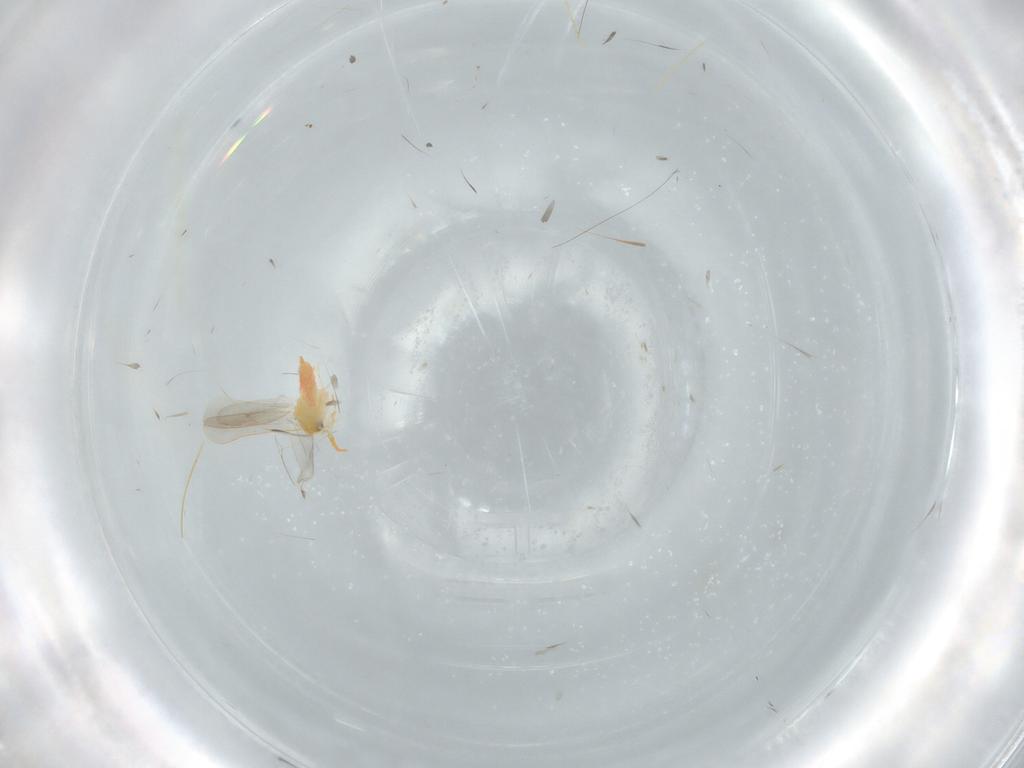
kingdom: Animalia
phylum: Arthropoda
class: Insecta
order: Hemiptera
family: Aleyrodidae
